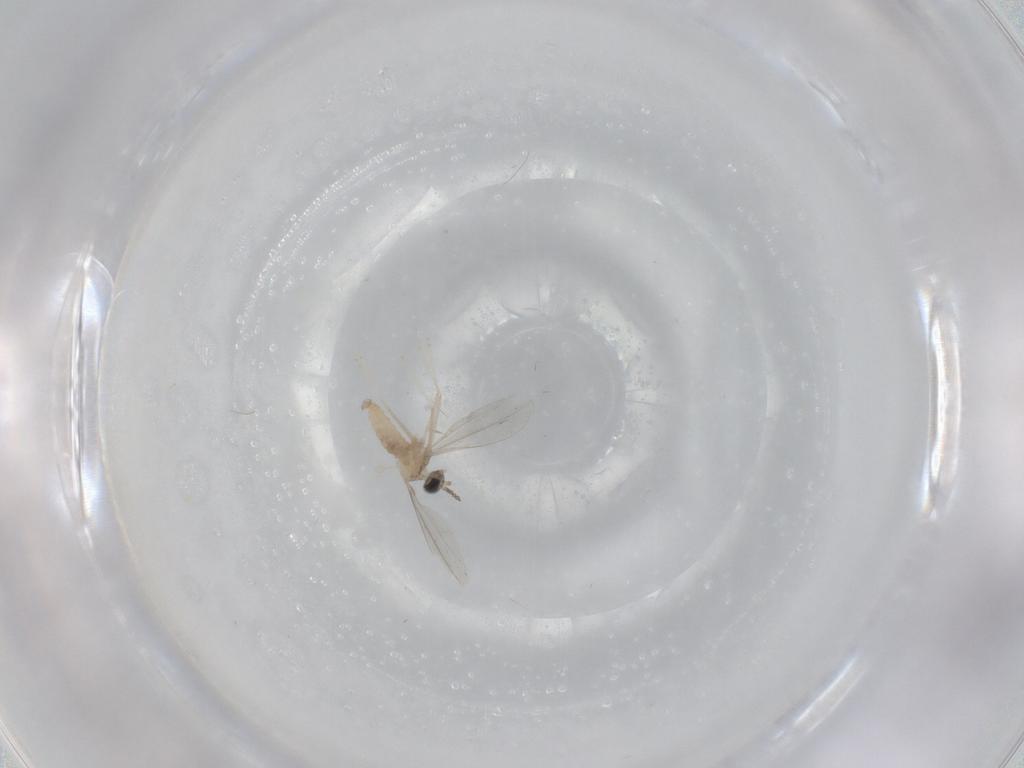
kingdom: Animalia
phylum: Arthropoda
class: Insecta
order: Diptera
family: Cecidomyiidae
